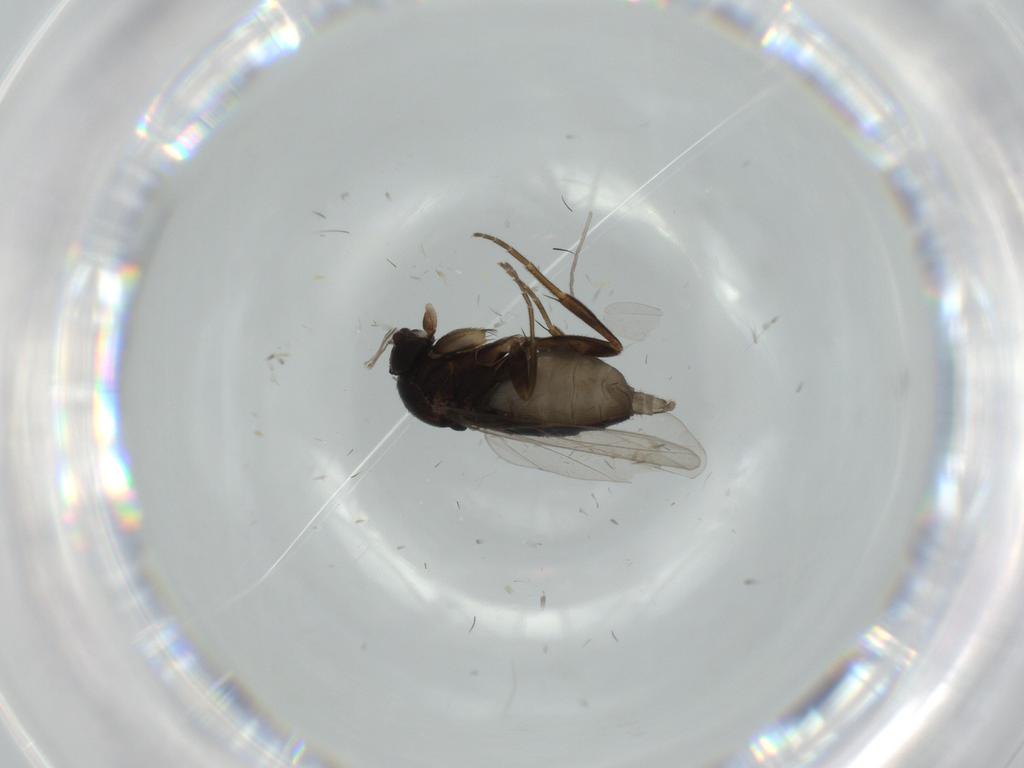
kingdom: Animalia
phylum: Arthropoda
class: Insecta
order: Diptera
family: Phoridae
